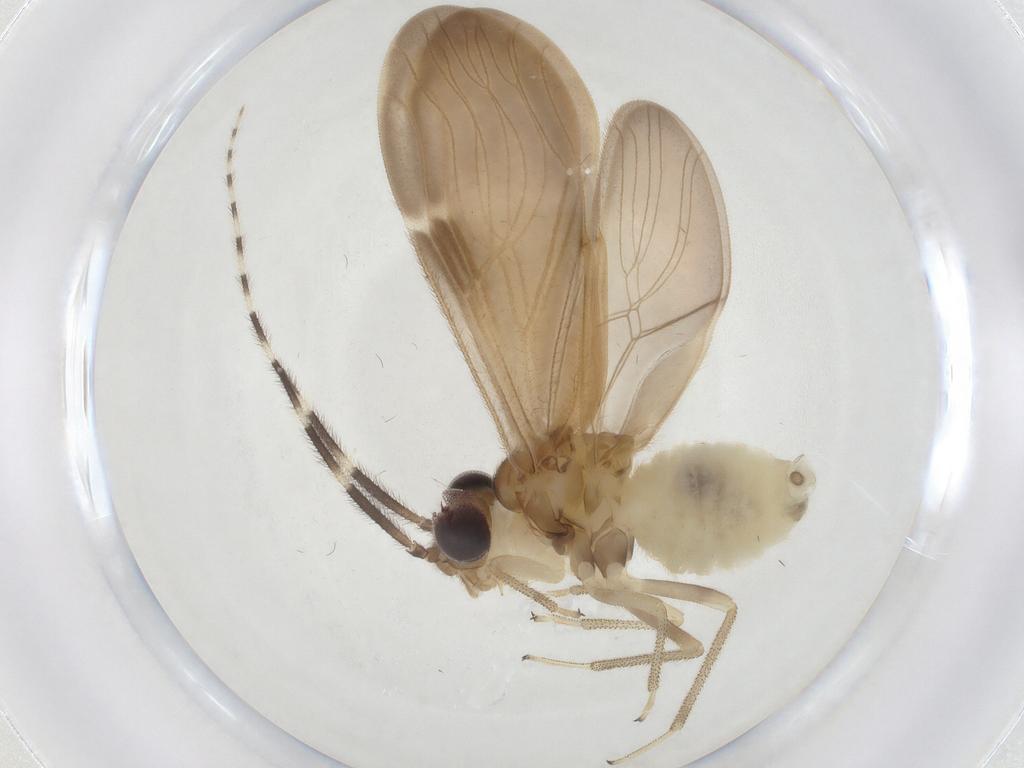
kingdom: Animalia
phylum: Arthropoda
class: Insecta
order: Psocodea
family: Amphipsocidae
